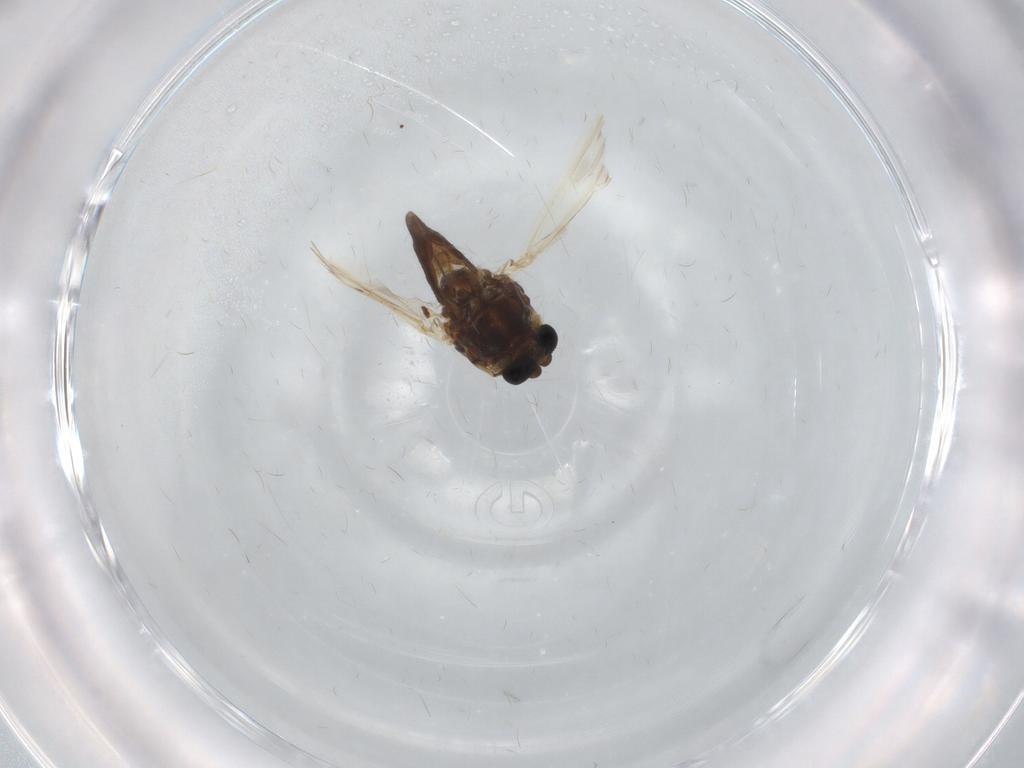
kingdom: Animalia
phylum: Arthropoda
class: Insecta
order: Diptera
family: Chironomidae
